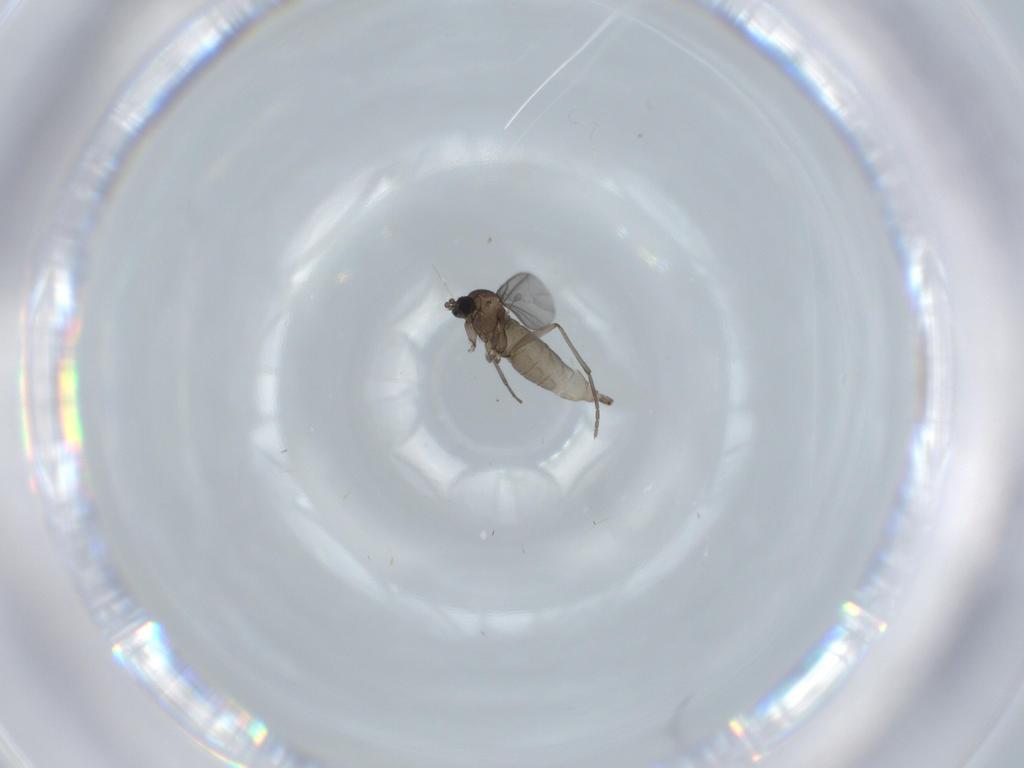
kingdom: Animalia
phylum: Arthropoda
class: Insecta
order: Diptera
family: Sciaridae
